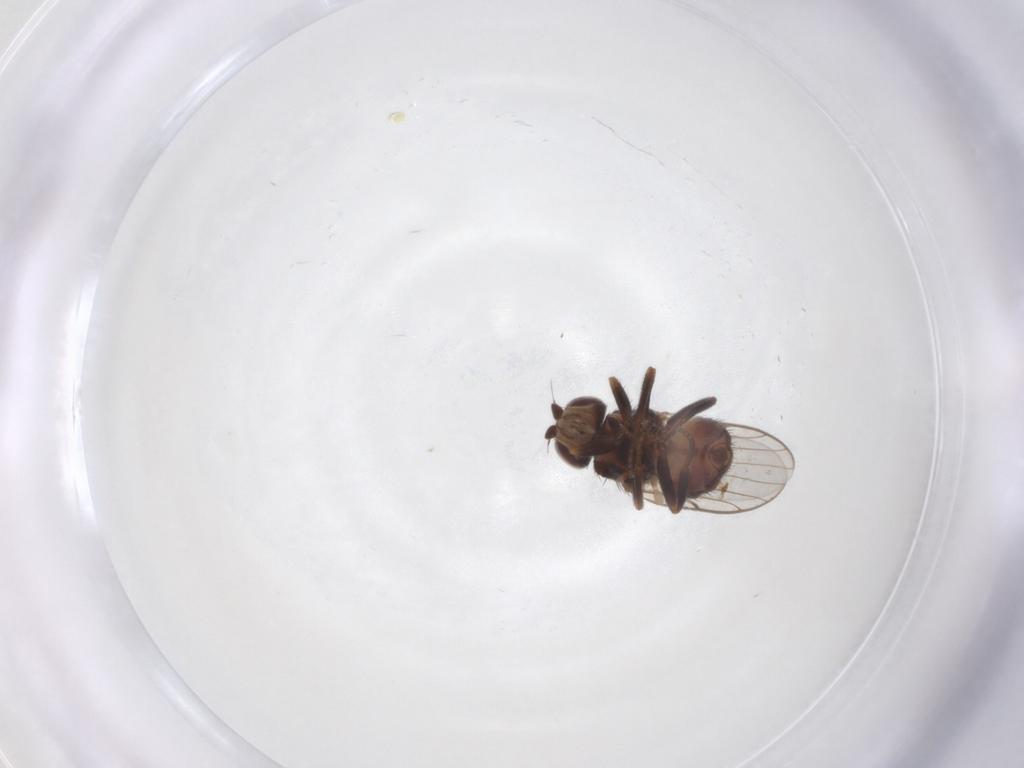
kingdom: Animalia
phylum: Arthropoda
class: Insecta
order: Diptera
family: Chloropidae
